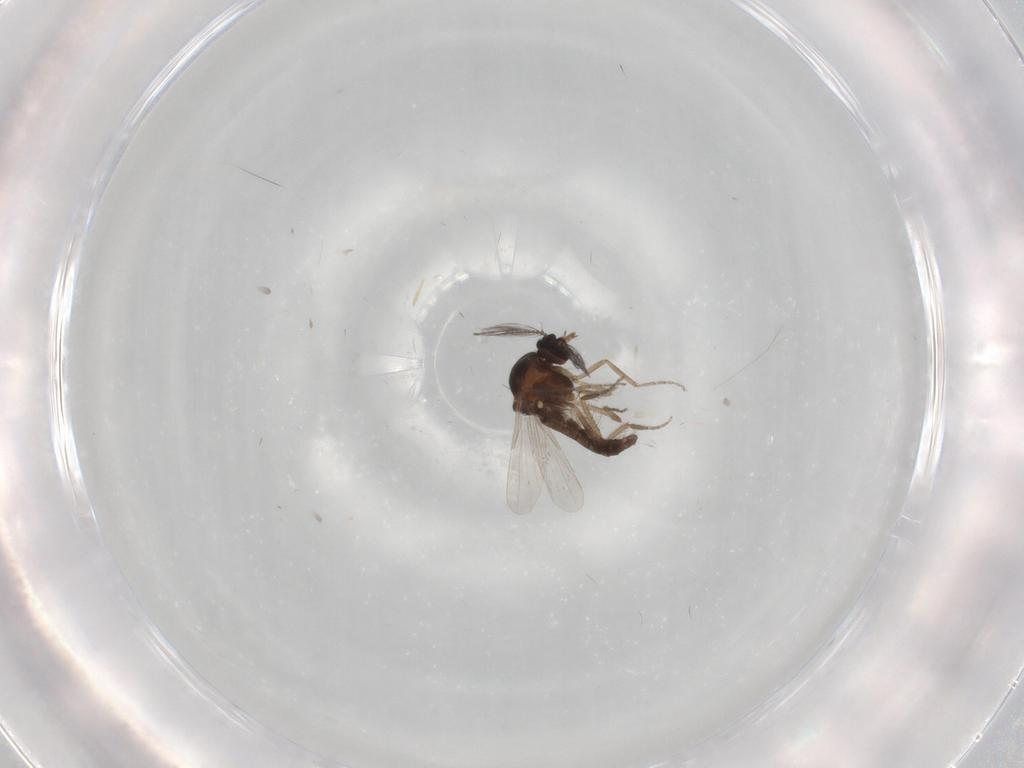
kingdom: Animalia
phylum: Arthropoda
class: Insecta
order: Diptera
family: Ceratopogonidae
